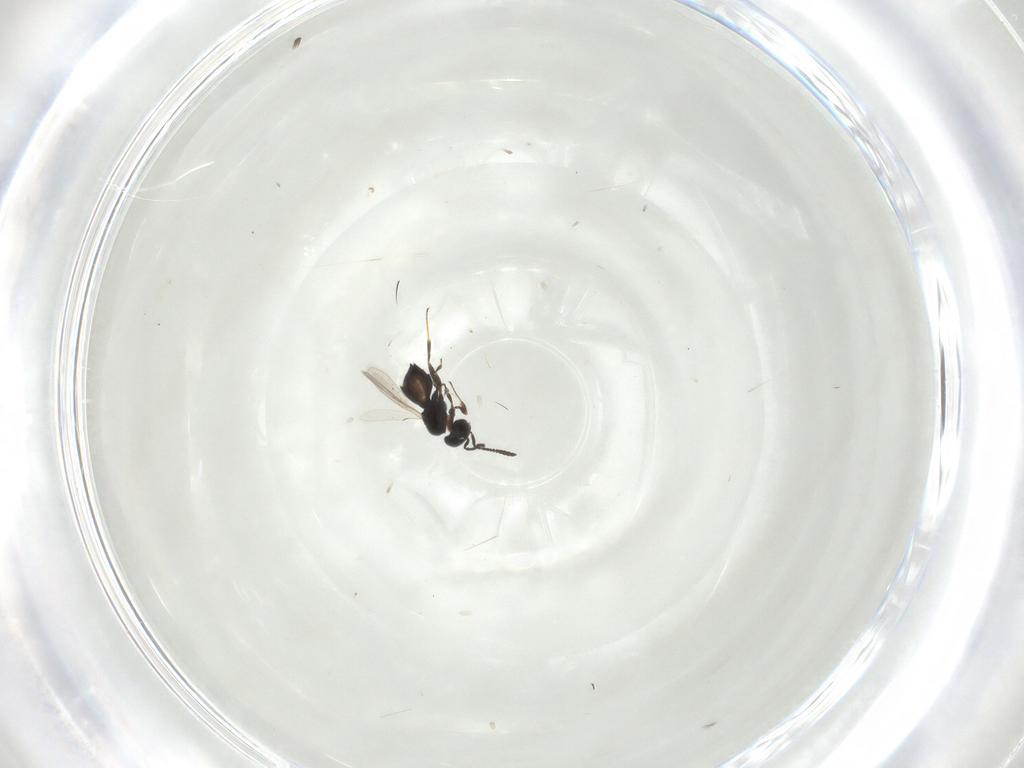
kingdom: Animalia
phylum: Arthropoda
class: Insecta
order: Hymenoptera
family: Scelionidae
